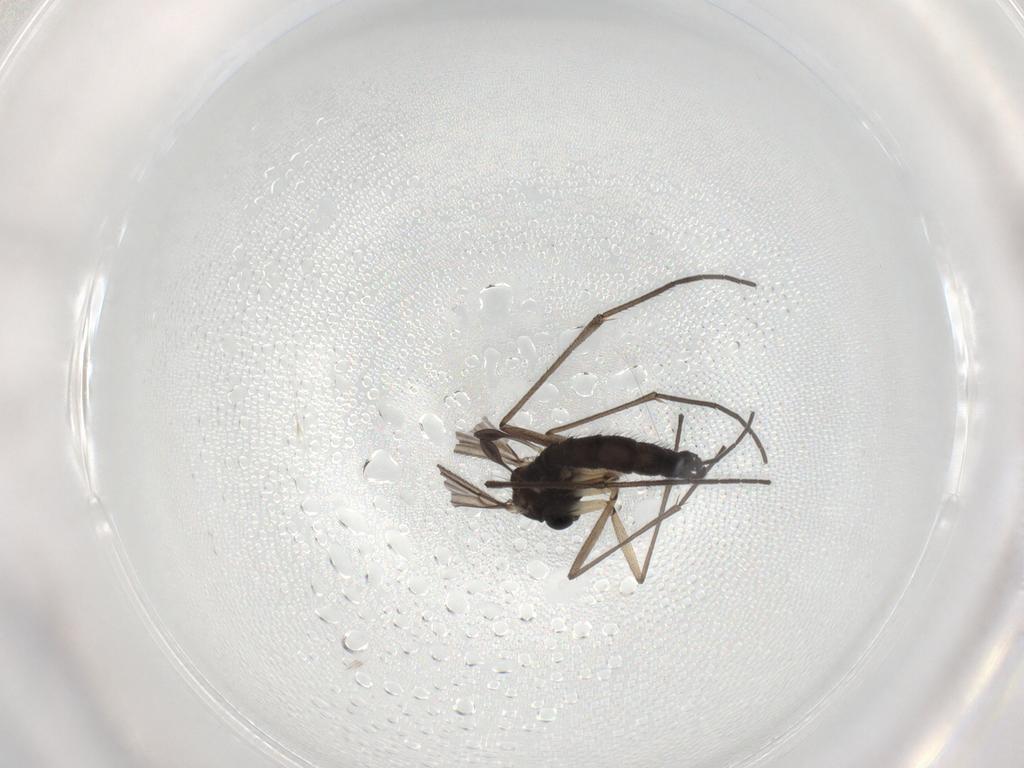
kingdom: Animalia
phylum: Arthropoda
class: Insecta
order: Diptera
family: Sciaridae
